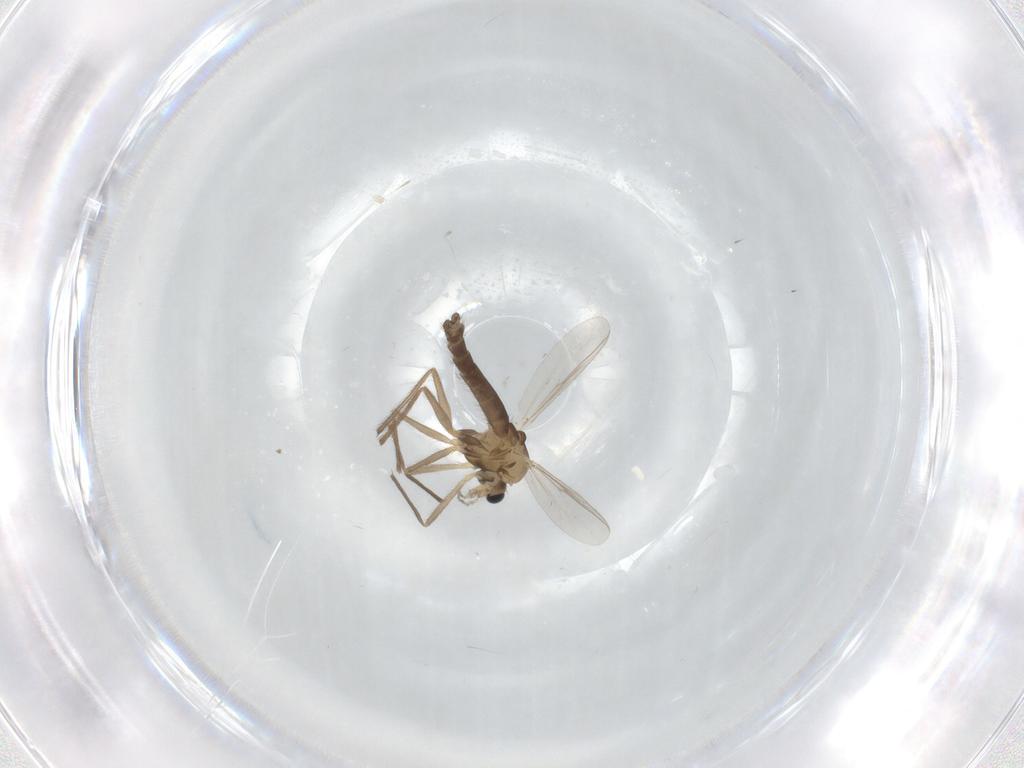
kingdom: Animalia
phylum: Arthropoda
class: Insecta
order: Diptera
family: Chironomidae
